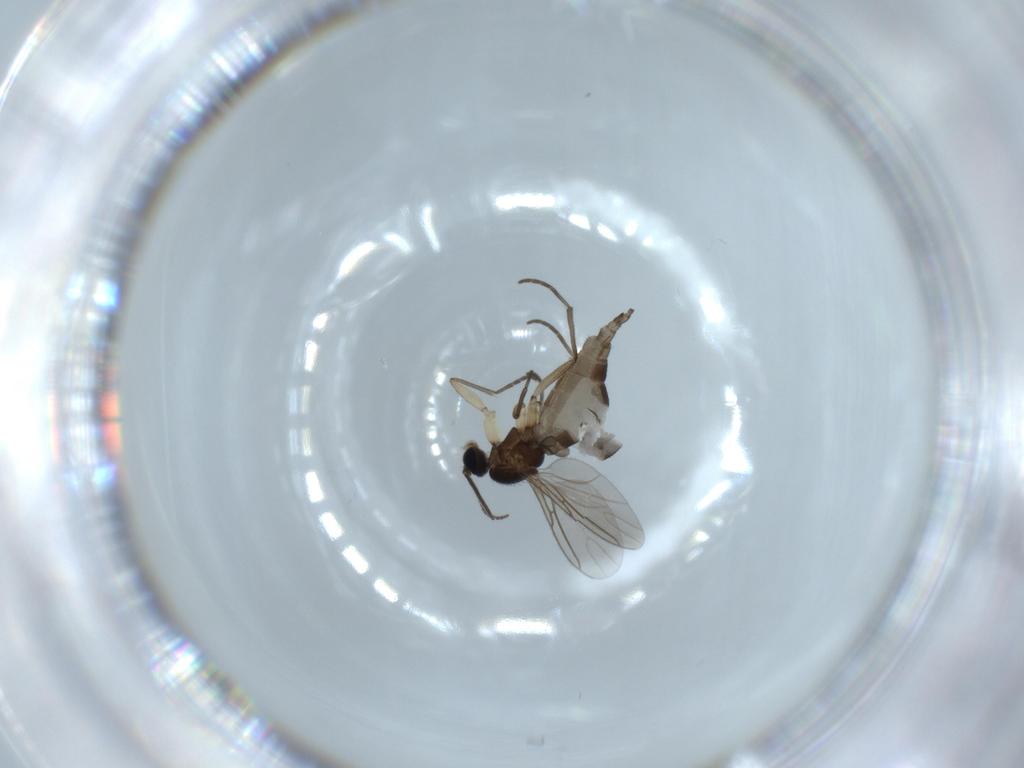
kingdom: Animalia
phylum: Arthropoda
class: Insecta
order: Diptera
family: Sciaridae
